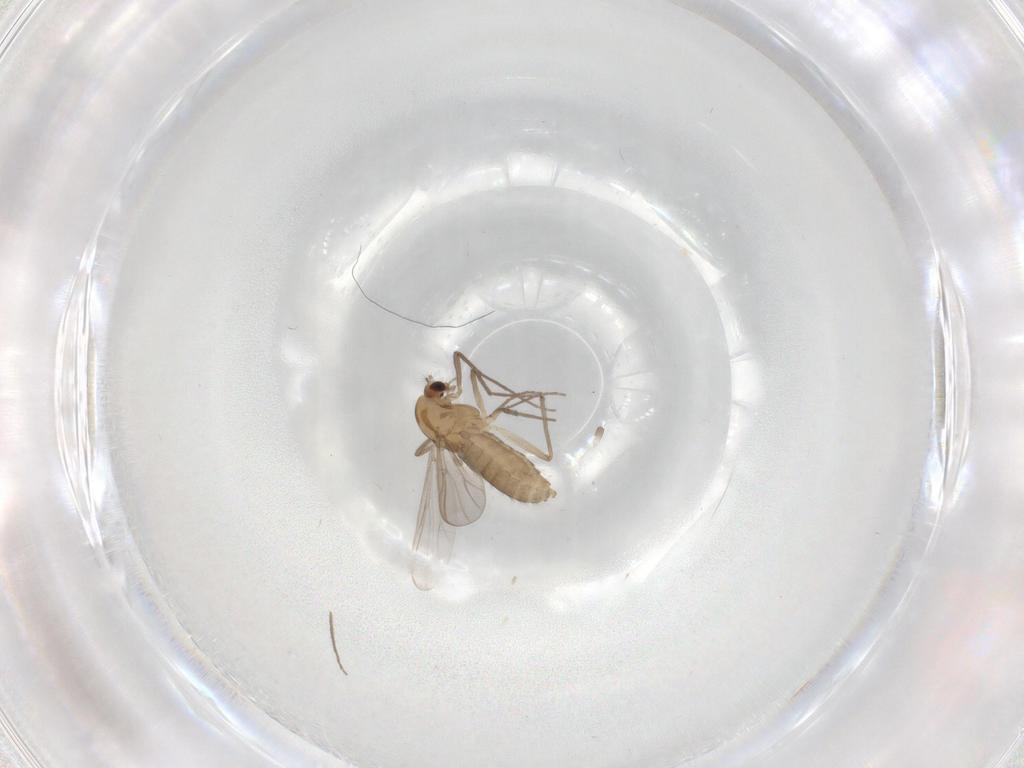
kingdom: Animalia
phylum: Arthropoda
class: Insecta
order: Diptera
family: Chironomidae
